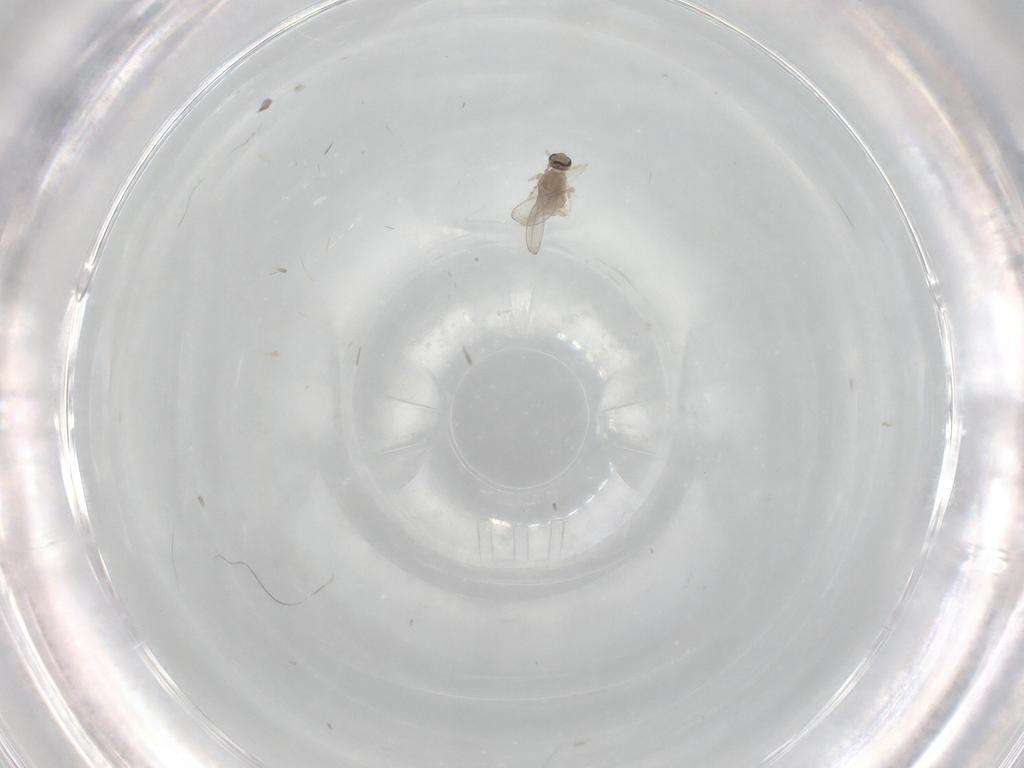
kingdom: Animalia
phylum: Arthropoda
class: Insecta
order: Diptera
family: Cecidomyiidae
